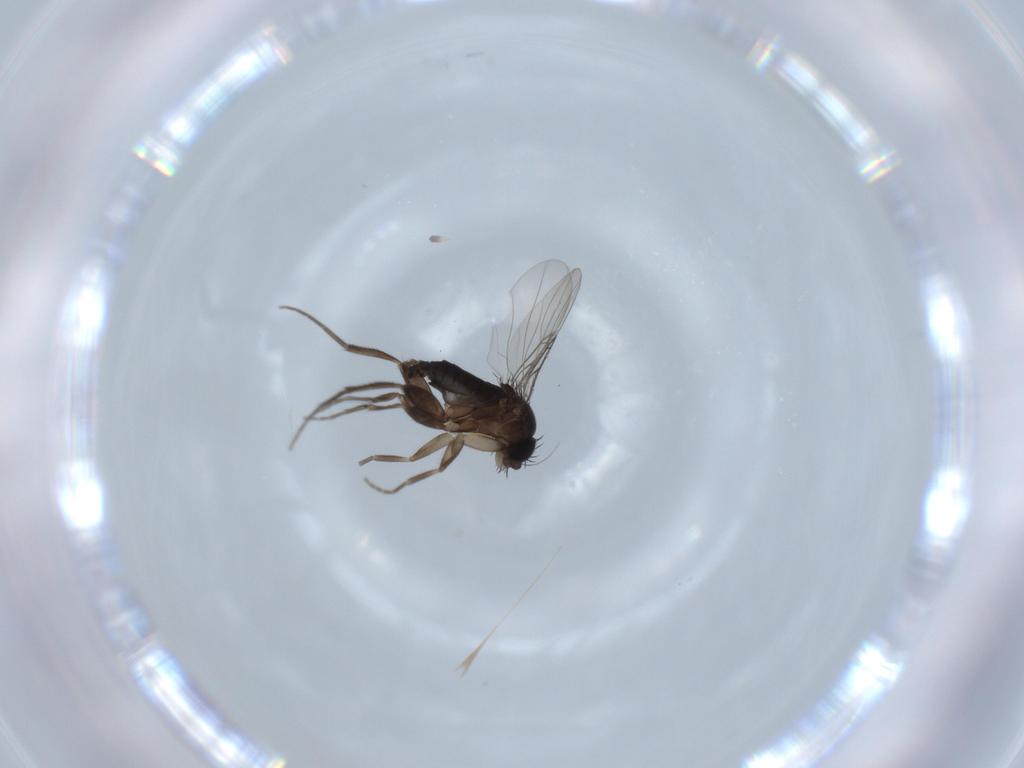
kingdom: Animalia
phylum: Arthropoda
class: Insecta
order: Diptera
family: Phoridae
